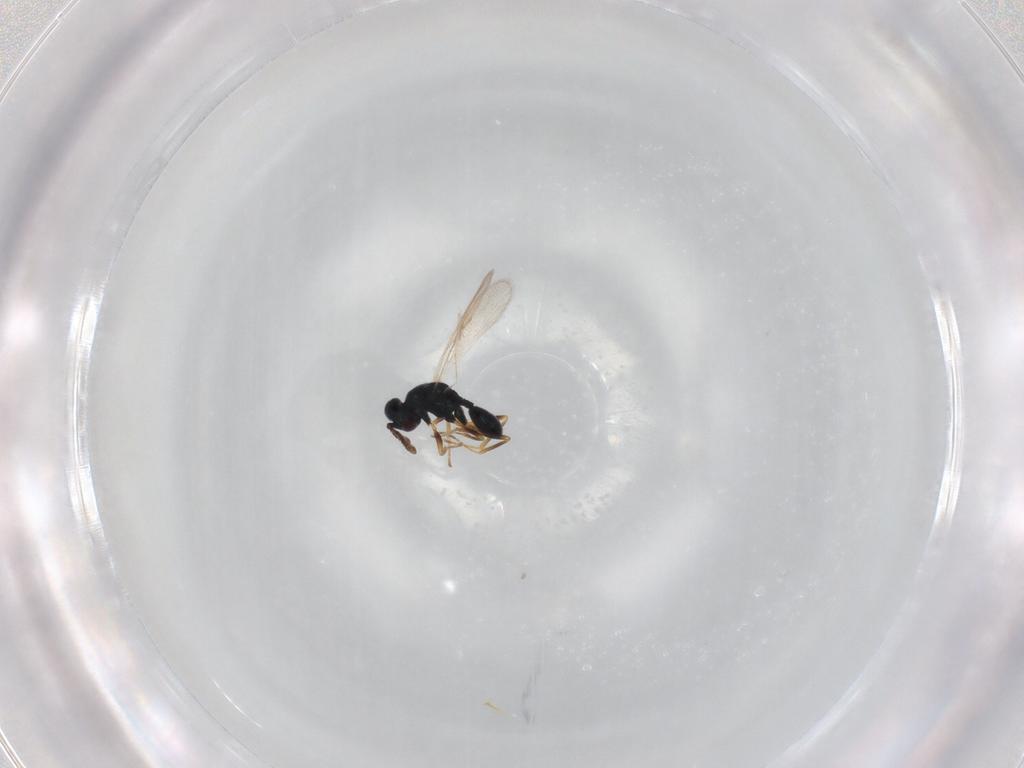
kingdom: Animalia
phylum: Arthropoda
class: Insecta
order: Hymenoptera
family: Chalcidoidea_incertae_sedis
